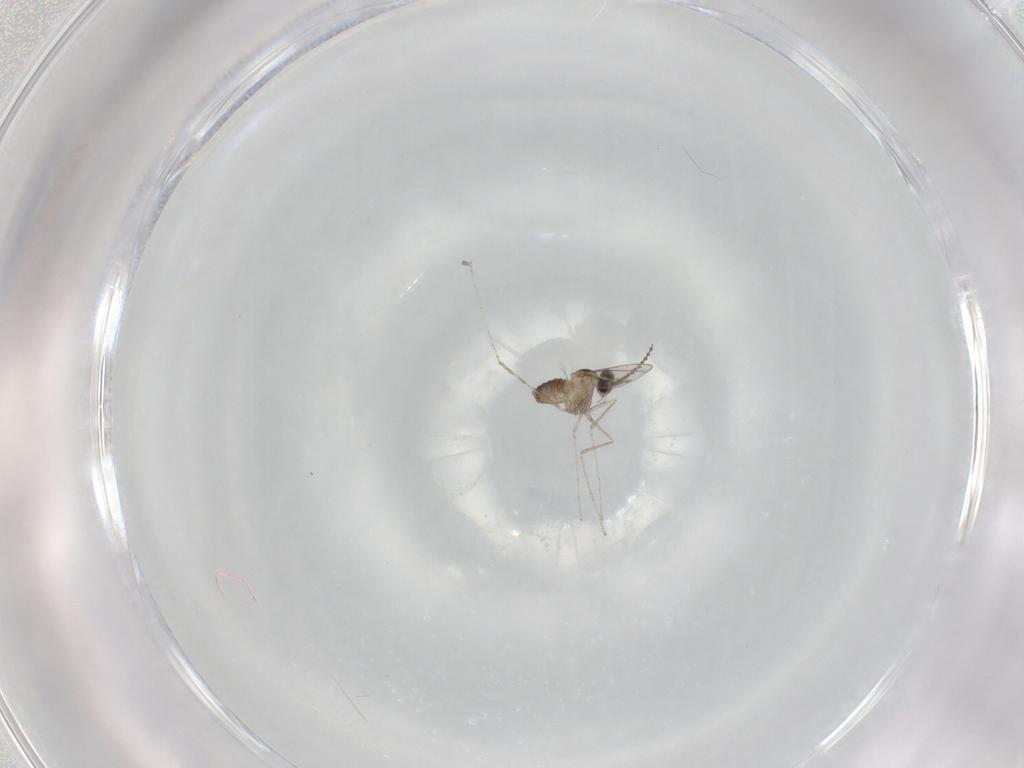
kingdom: Animalia
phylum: Arthropoda
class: Insecta
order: Diptera
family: Cecidomyiidae
